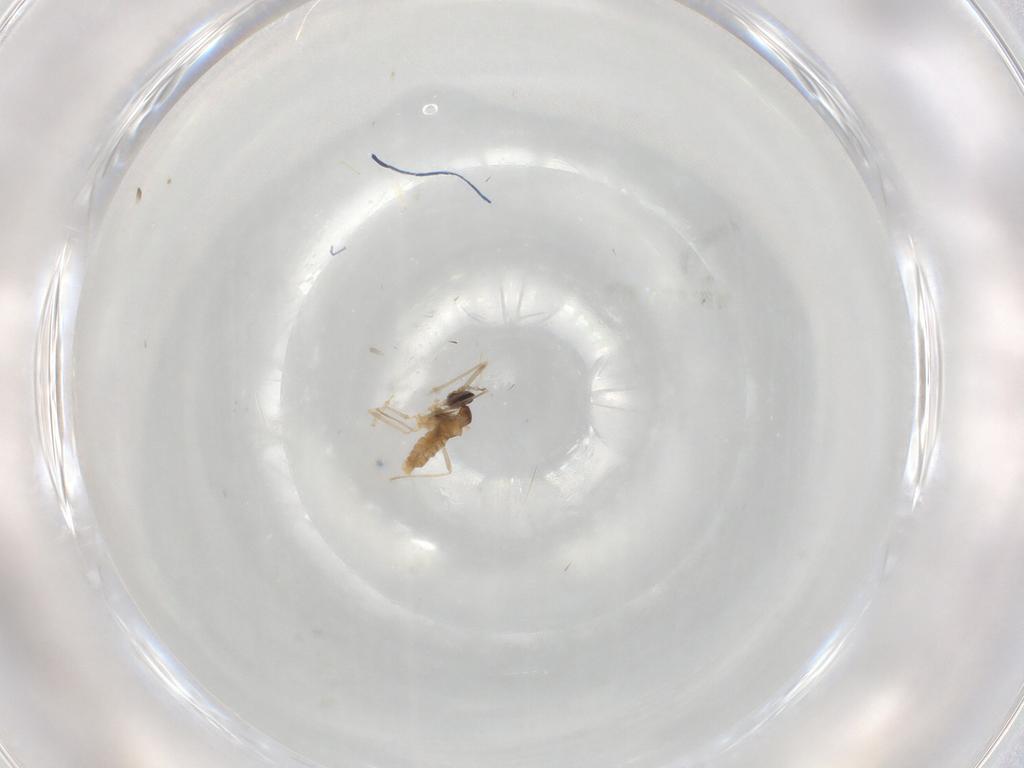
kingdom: Animalia
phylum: Arthropoda
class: Insecta
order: Diptera
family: Cecidomyiidae
